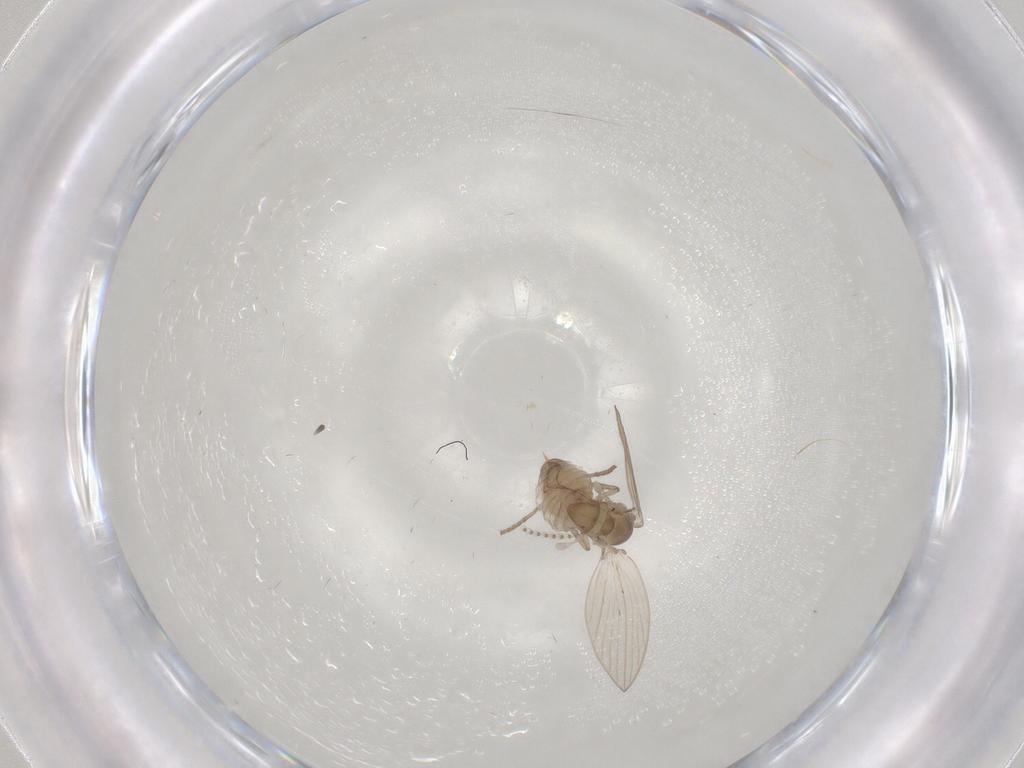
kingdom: Animalia
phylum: Arthropoda
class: Insecta
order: Diptera
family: Psychodidae
